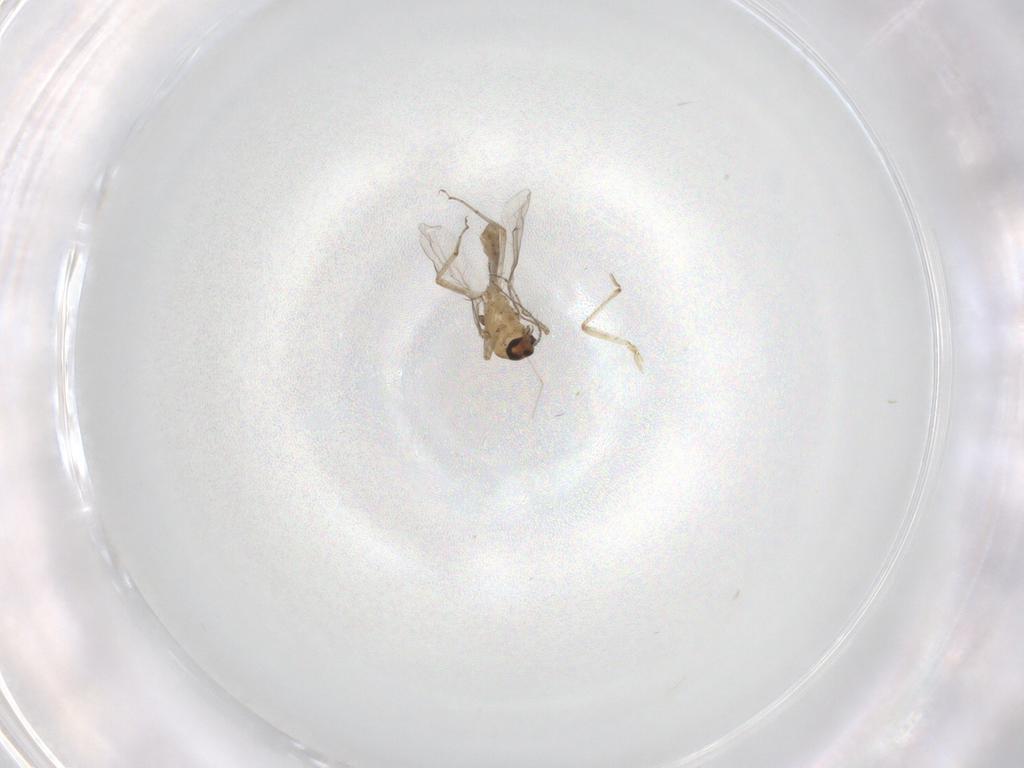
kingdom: Animalia
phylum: Arthropoda
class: Insecta
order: Diptera
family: Ceratopogonidae
